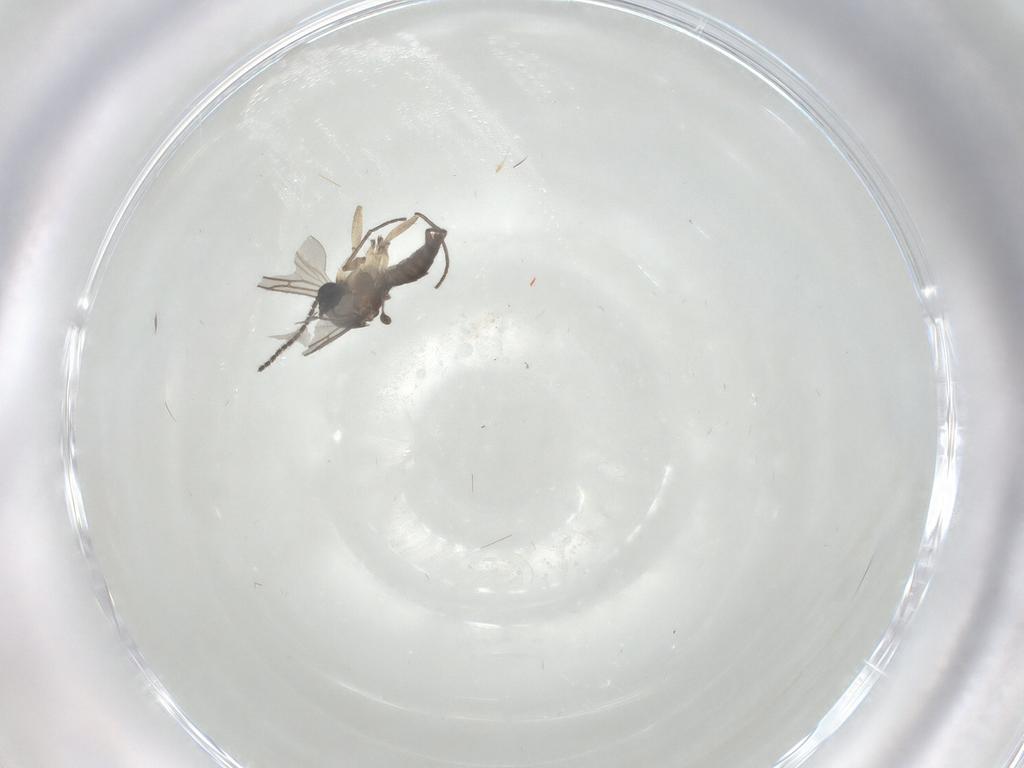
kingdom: Animalia
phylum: Arthropoda
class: Insecta
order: Diptera
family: Sciaridae
